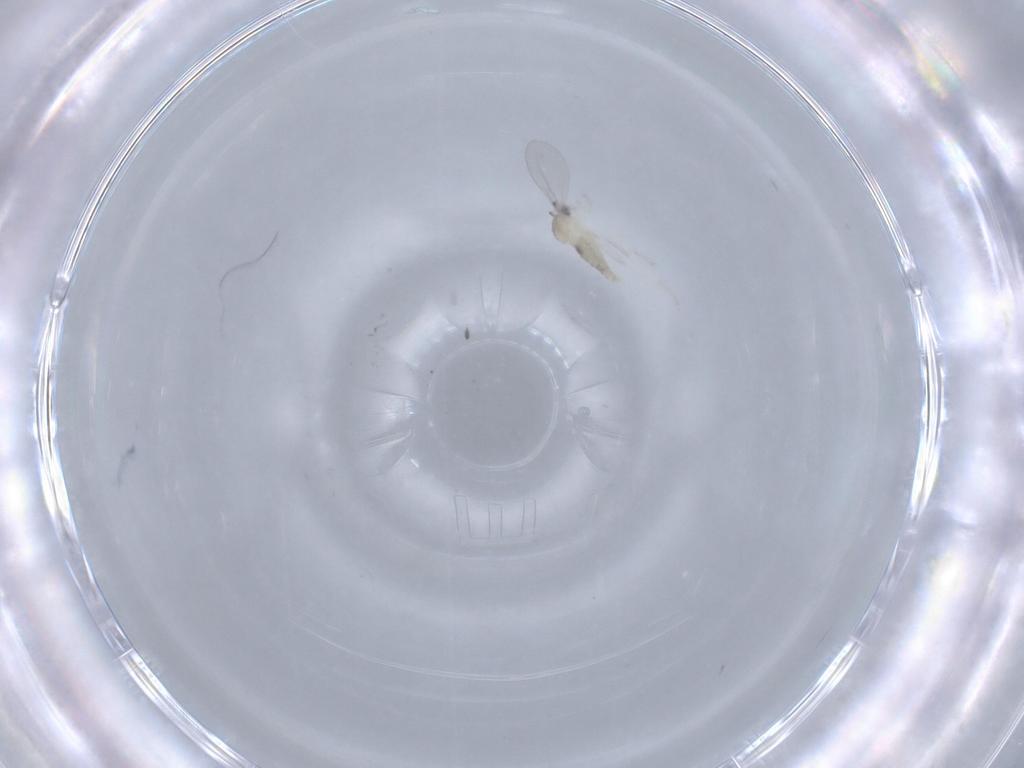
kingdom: Animalia
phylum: Arthropoda
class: Insecta
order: Diptera
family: Cecidomyiidae
